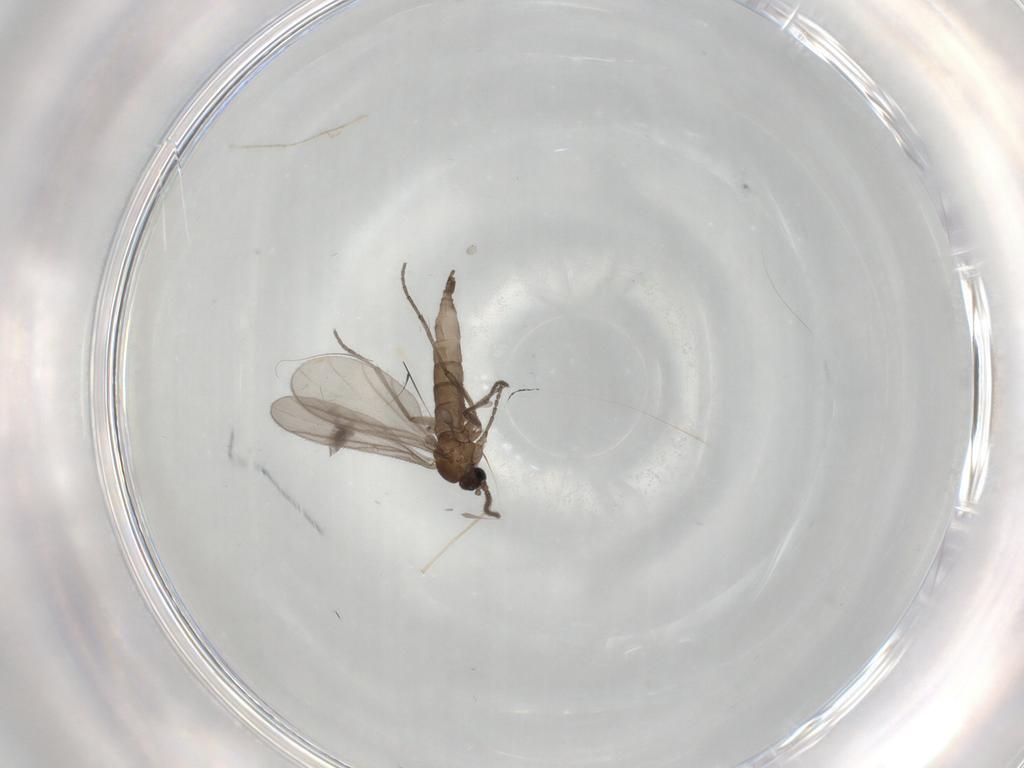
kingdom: Animalia
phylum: Arthropoda
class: Insecta
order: Diptera
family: Sciaridae
